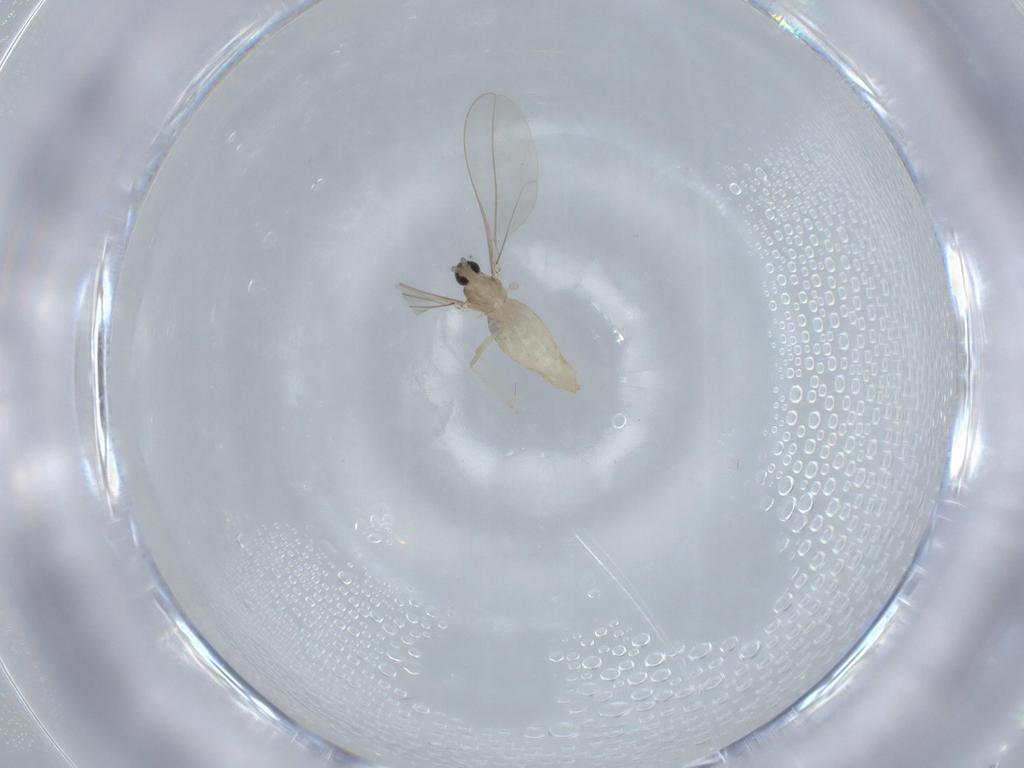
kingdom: Animalia
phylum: Arthropoda
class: Insecta
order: Diptera
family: Cecidomyiidae
